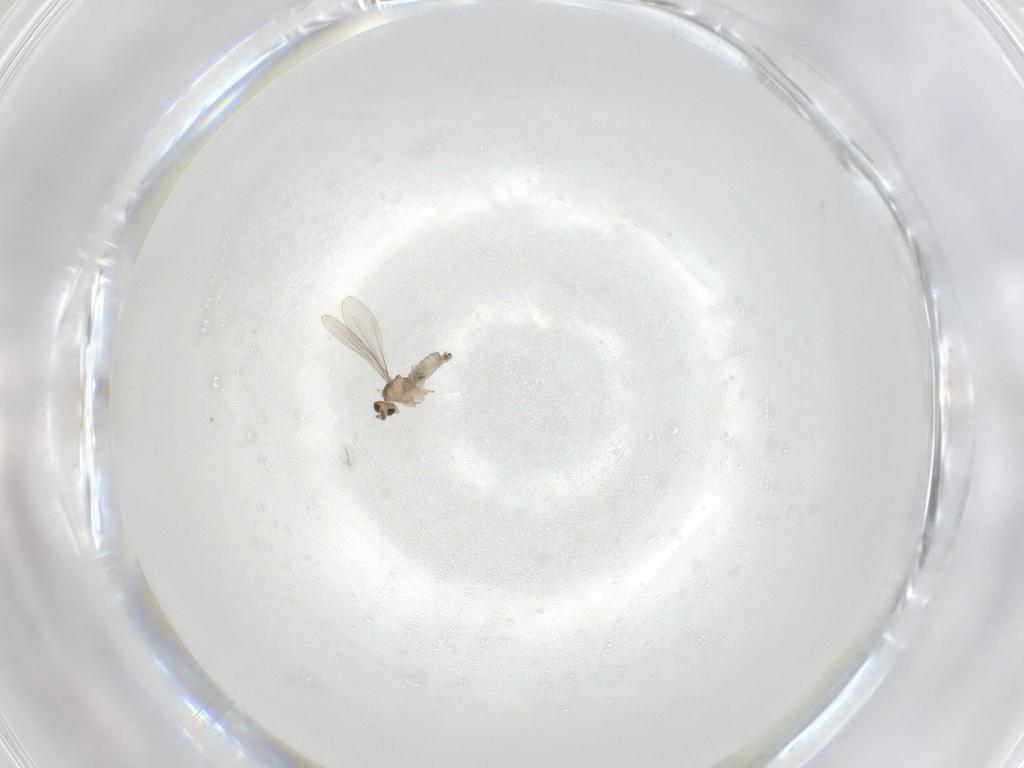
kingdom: Animalia
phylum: Arthropoda
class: Insecta
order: Diptera
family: Cecidomyiidae
